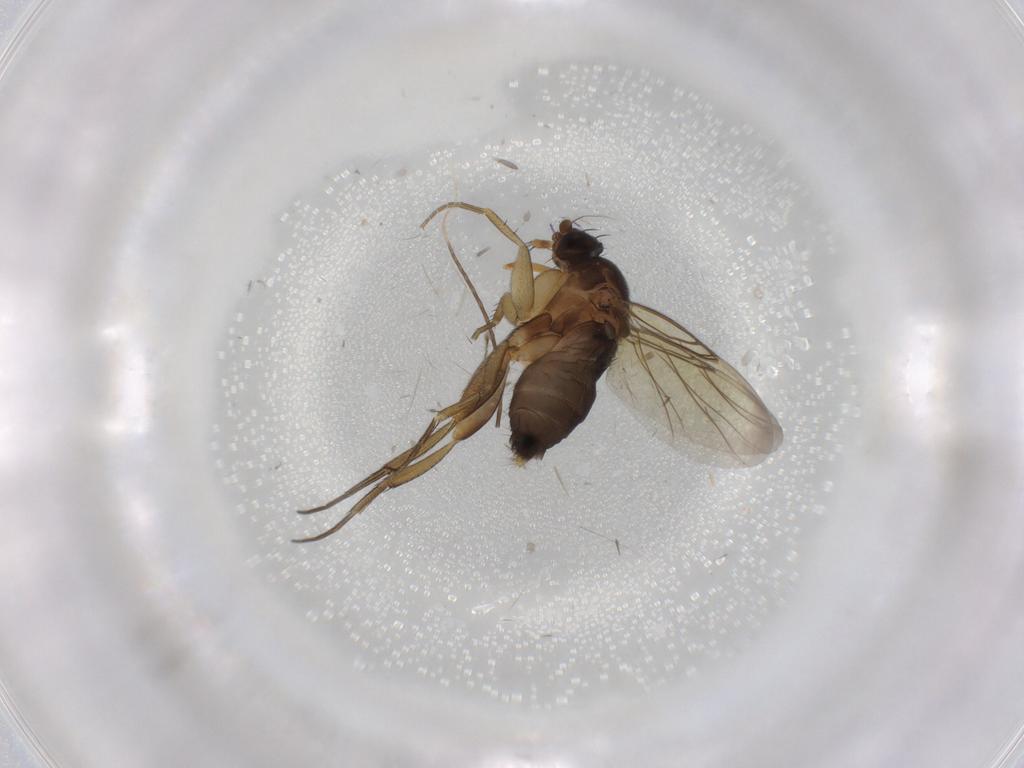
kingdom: Animalia
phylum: Arthropoda
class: Insecta
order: Diptera
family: Phoridae
